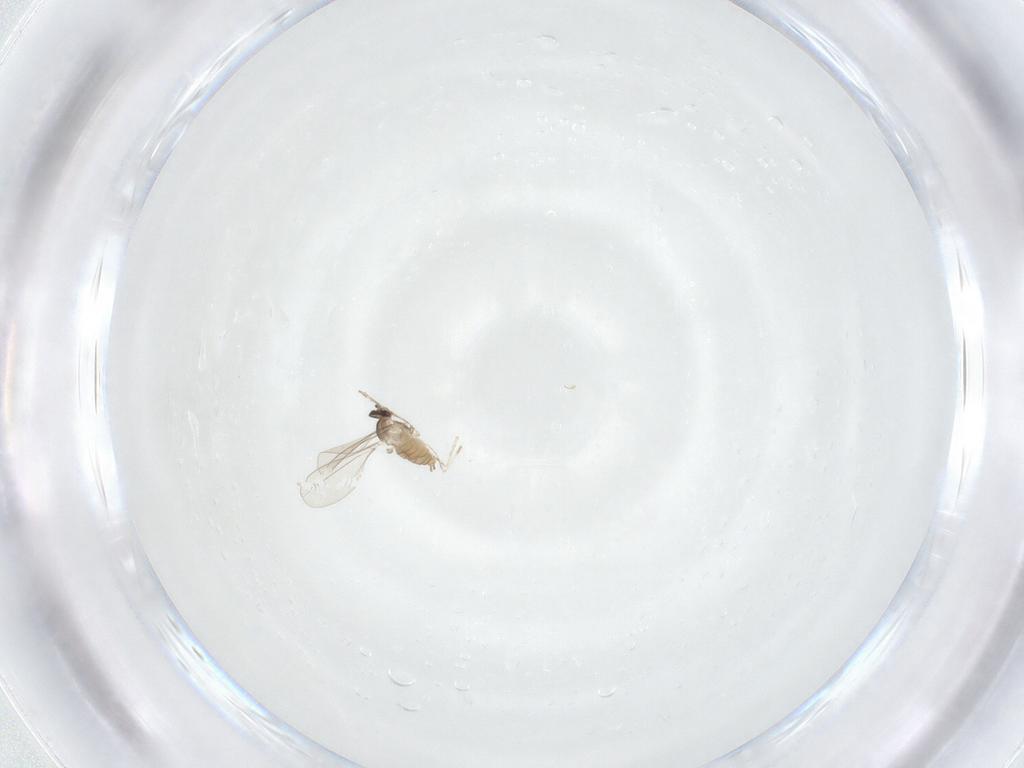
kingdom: Animalia
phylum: Arthropoda
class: Insecta
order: Diptera
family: Cecidomyiidae
